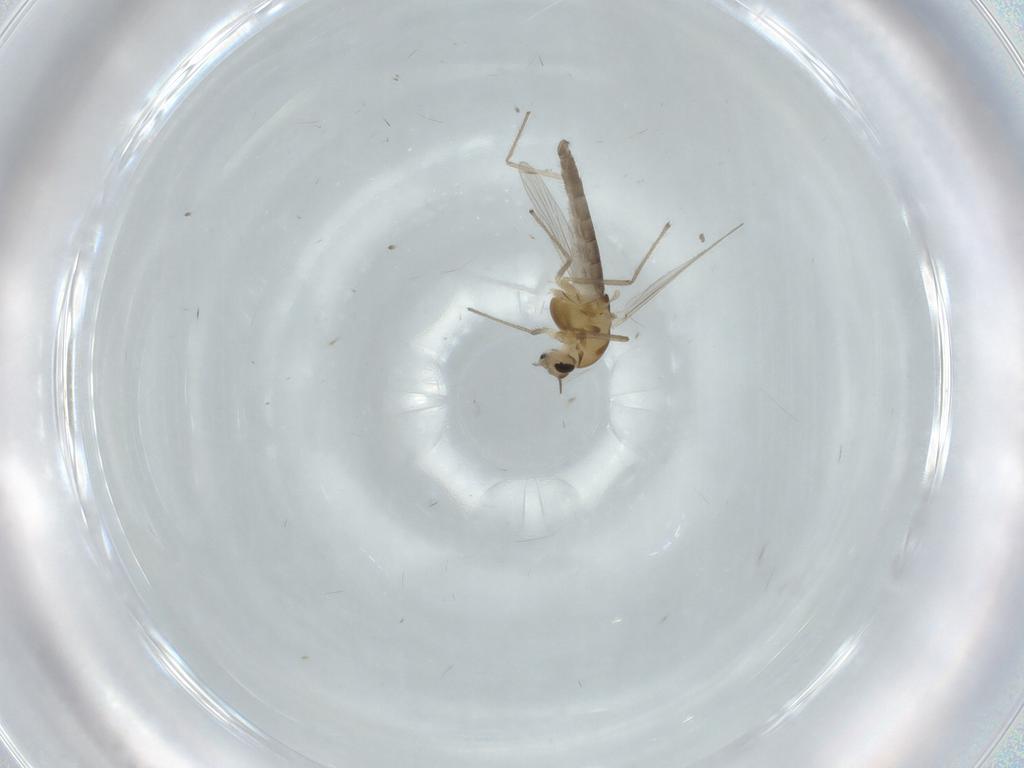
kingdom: Animalia
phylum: Arthropoda
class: Insecta
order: Diptera
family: Chironomidae
